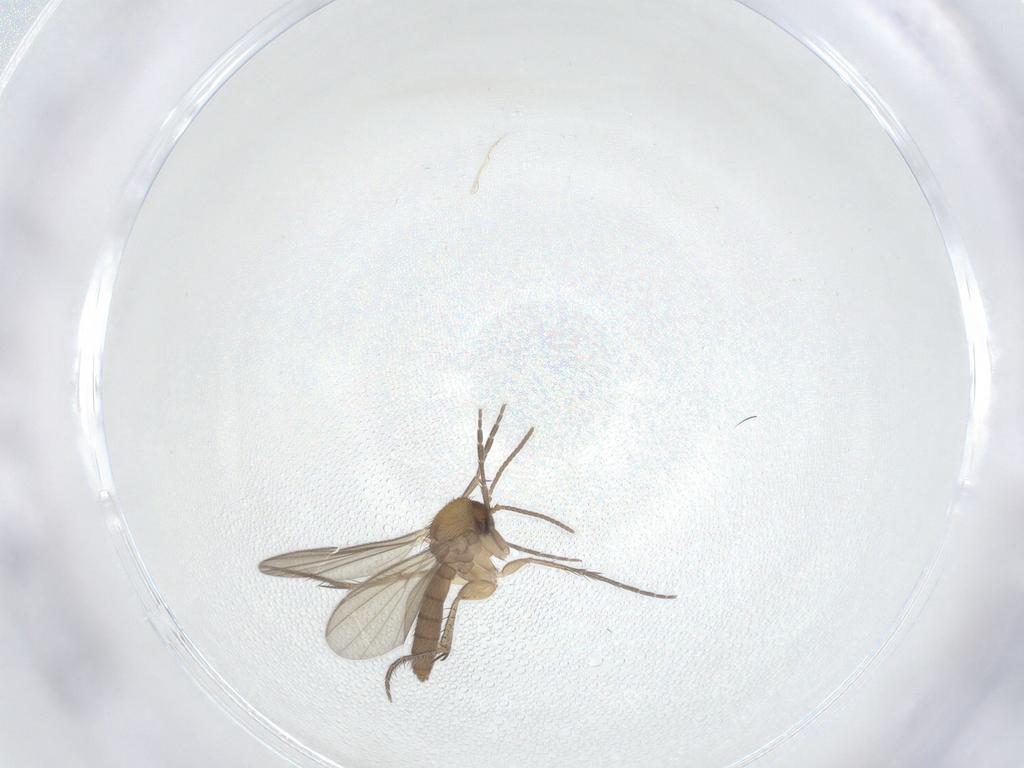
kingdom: Animalia
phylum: Arthropoda
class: Insecta
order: Diptera
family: Mycetophilidae
